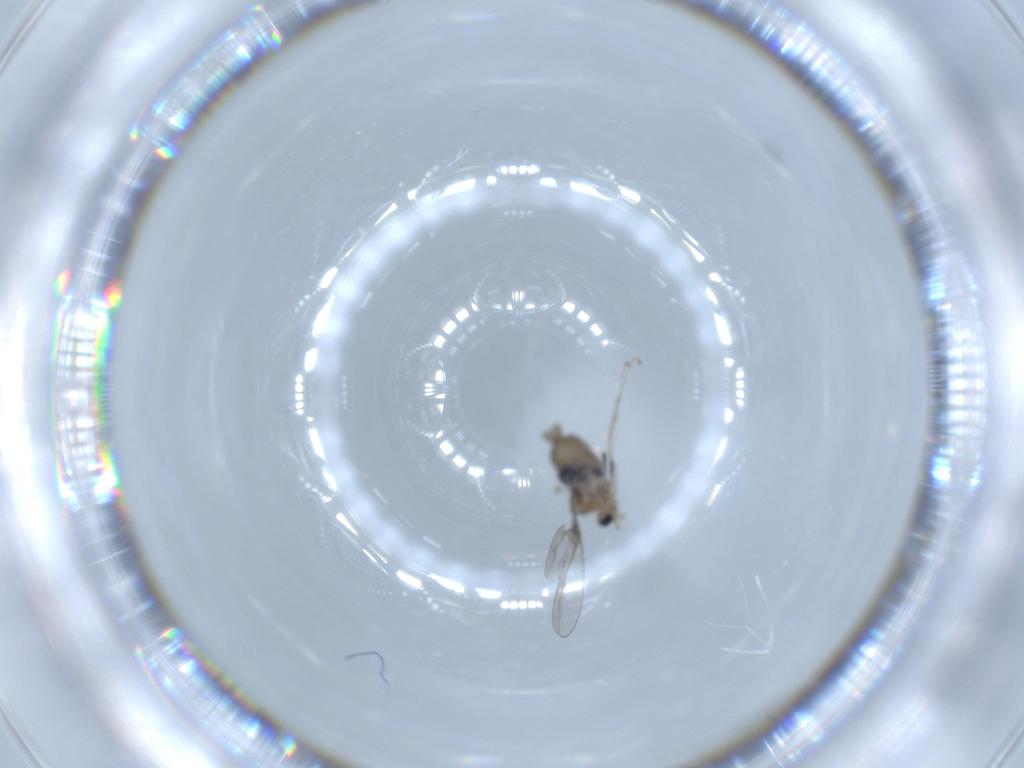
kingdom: Animalia
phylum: Arthropoda
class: Insecta
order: Diptera
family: Cecidomyiidae
